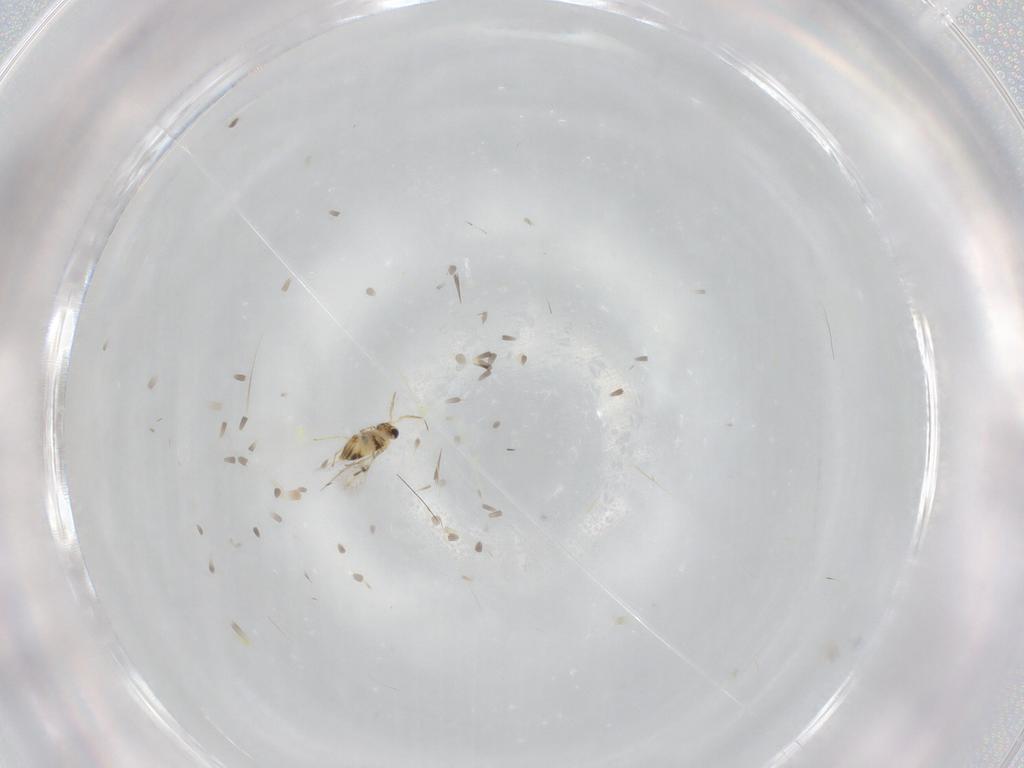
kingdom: Animalia
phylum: Arthropoda
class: Insecta
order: Hymenoptera
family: Trichogrammatidae
